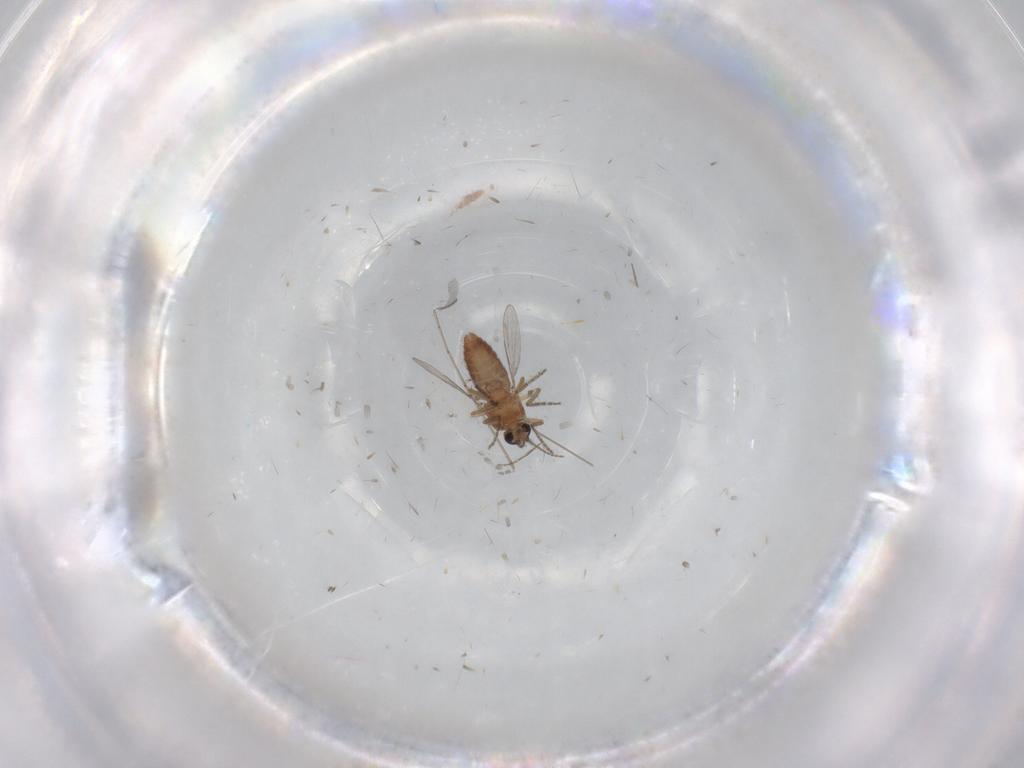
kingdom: Animalia
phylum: Arthropoda
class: Insecta
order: Diptera
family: Ceratopogonidae
